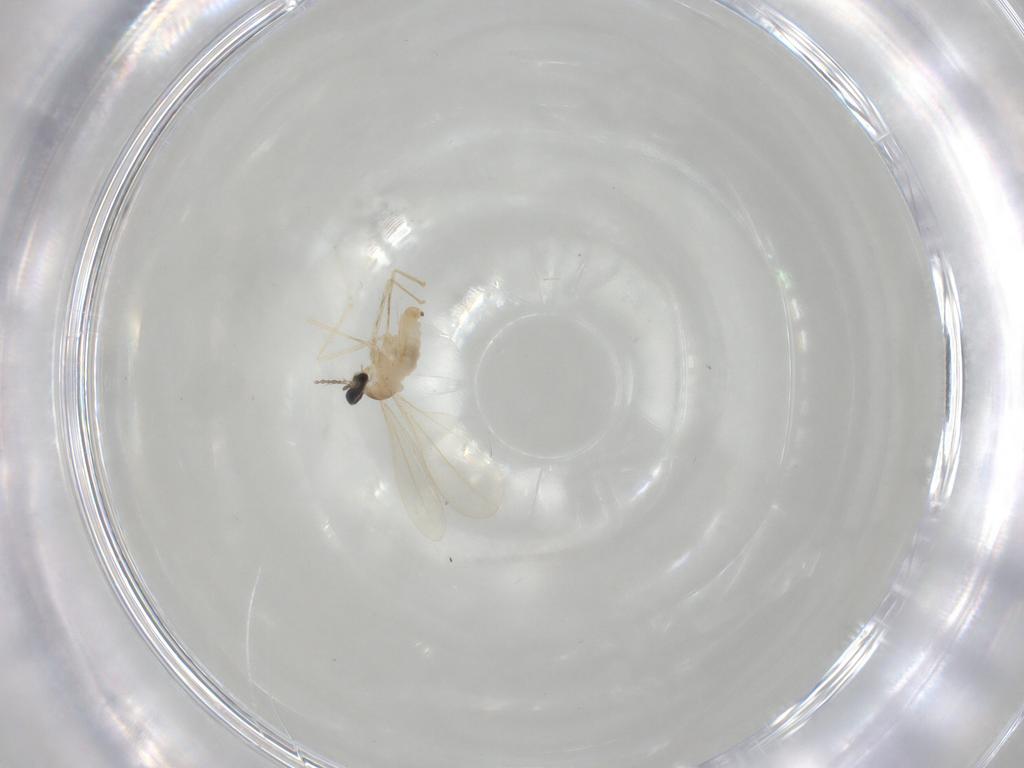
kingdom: Animalia
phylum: Arthropoda
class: Insecta
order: Diptera
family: Cecidomyiidae
